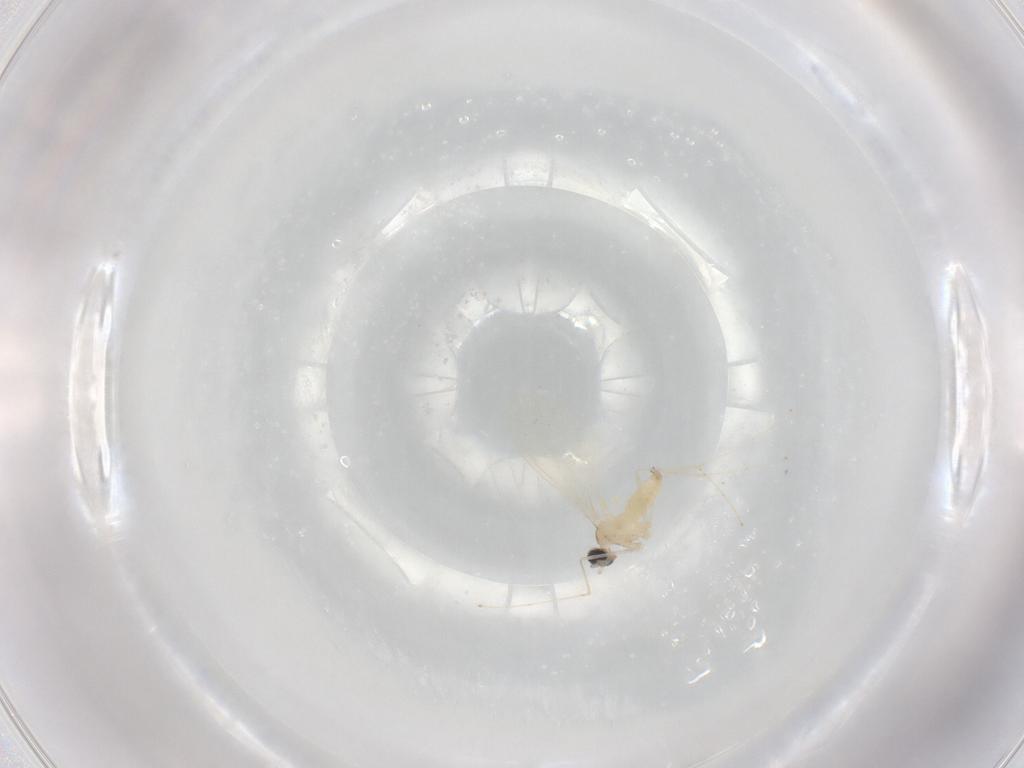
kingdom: Animalia
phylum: Arthropoda
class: Insecta
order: Diptera
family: Cecidomyiidae
